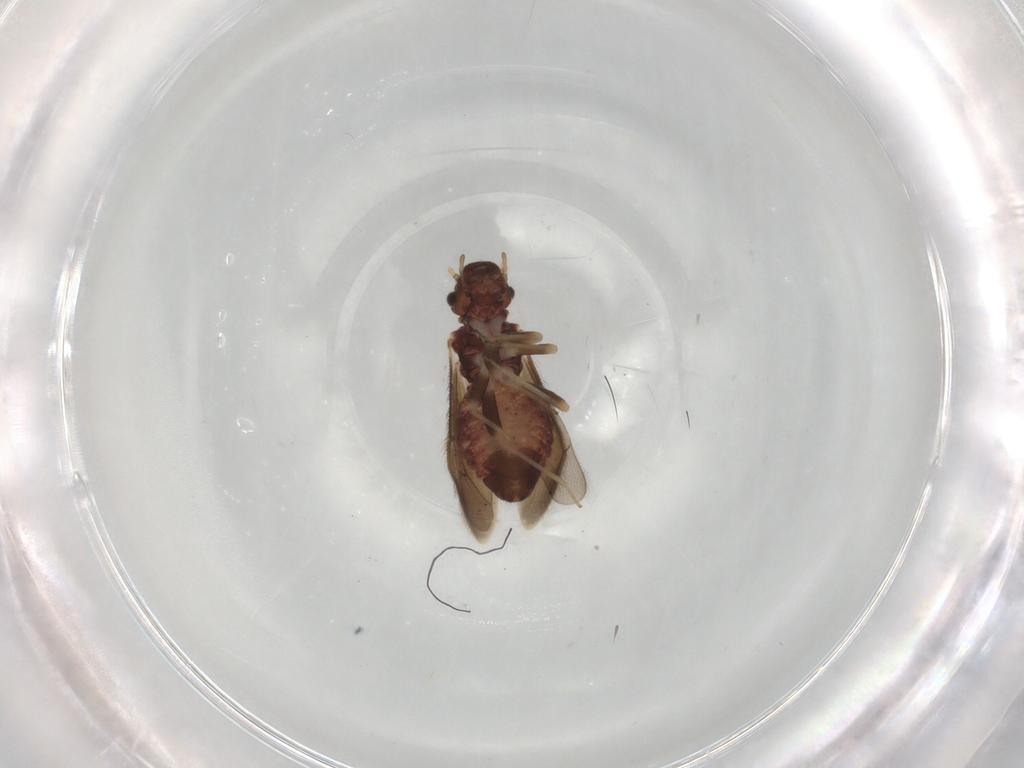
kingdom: Animalia
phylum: Arthropoda
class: Insecta
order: Psocodea
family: Archipsocidae
